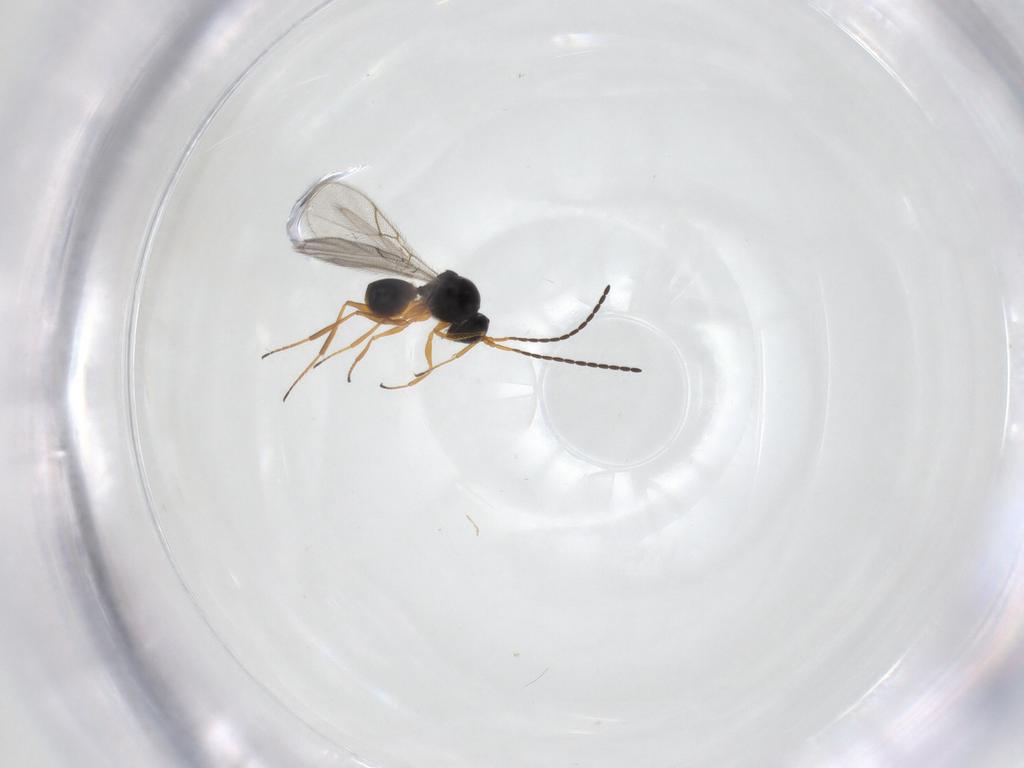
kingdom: Animalia
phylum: Arthropoda
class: Insecta
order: Hymenoptera
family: Figitidae
